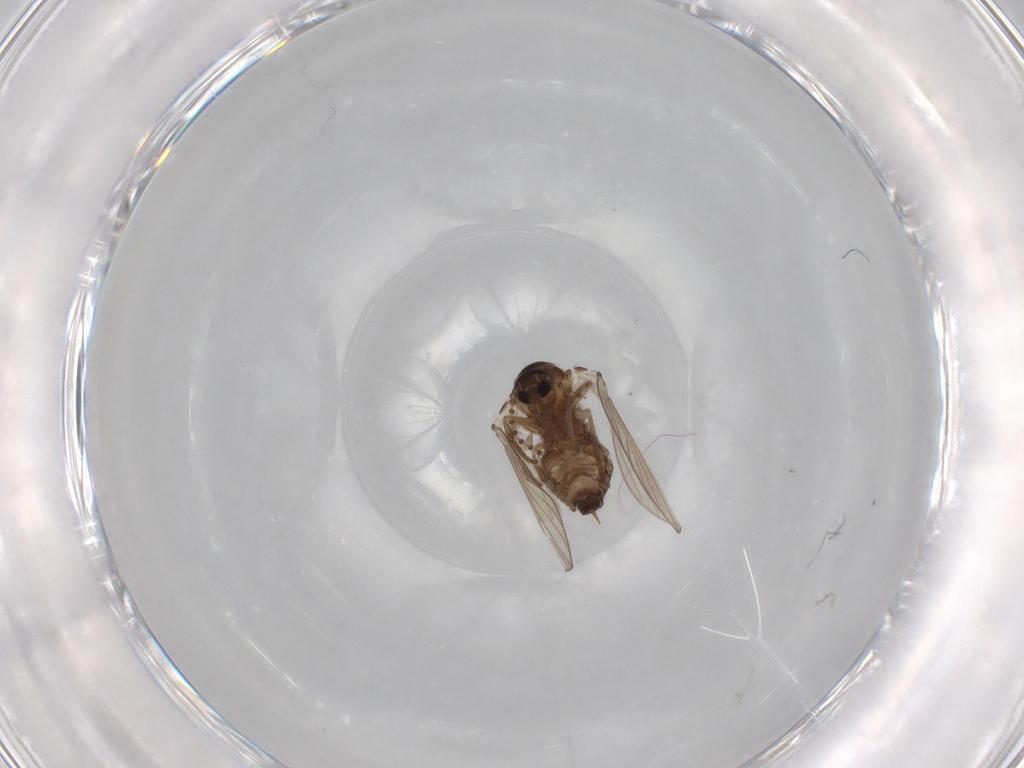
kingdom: Animalia
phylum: Arthropoda
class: Insecta
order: Diptera
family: Psychodidae
